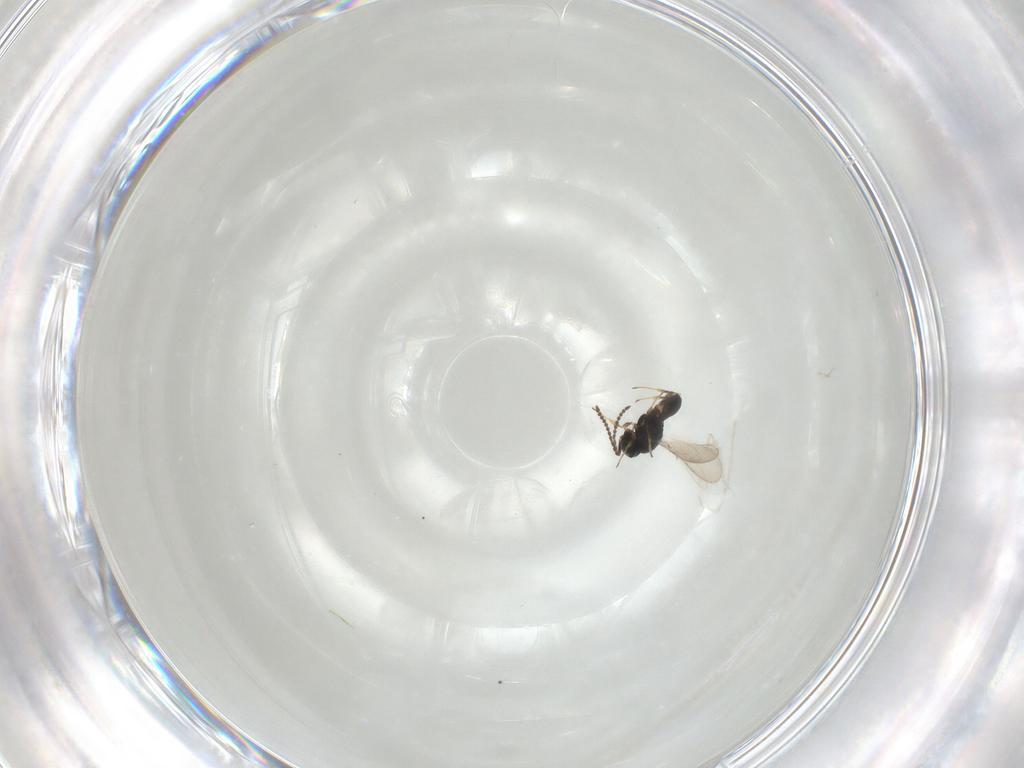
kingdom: Animalia
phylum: Arthropoda
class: Insecta
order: Hymenoptera
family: Scelionidae
